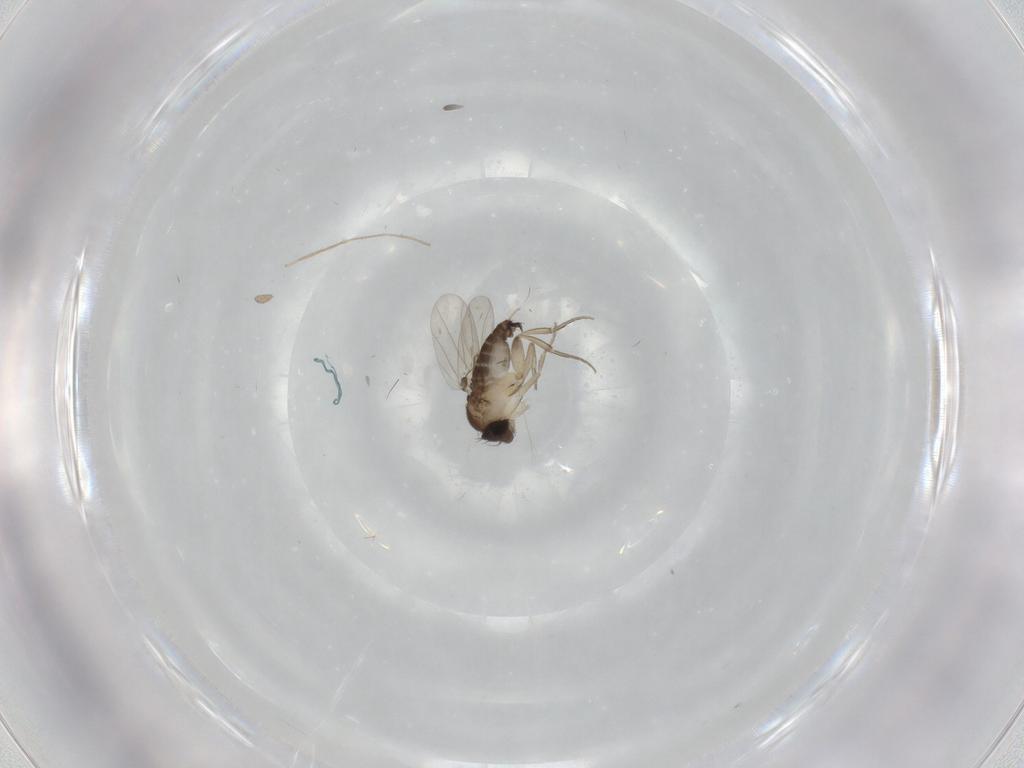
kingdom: Animalia
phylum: Arthropoda
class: Insecta
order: Diptera
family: Phoridae
